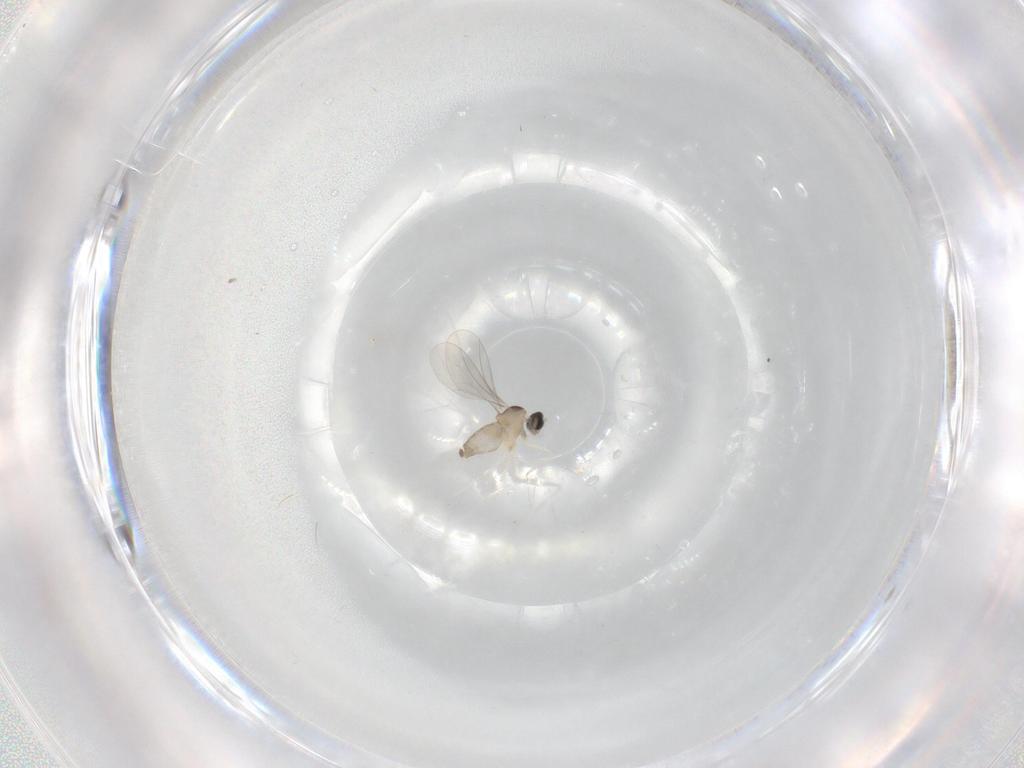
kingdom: Animalia
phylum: Arthropoda
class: Insecta
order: Diptera
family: Cecidomyiidae
